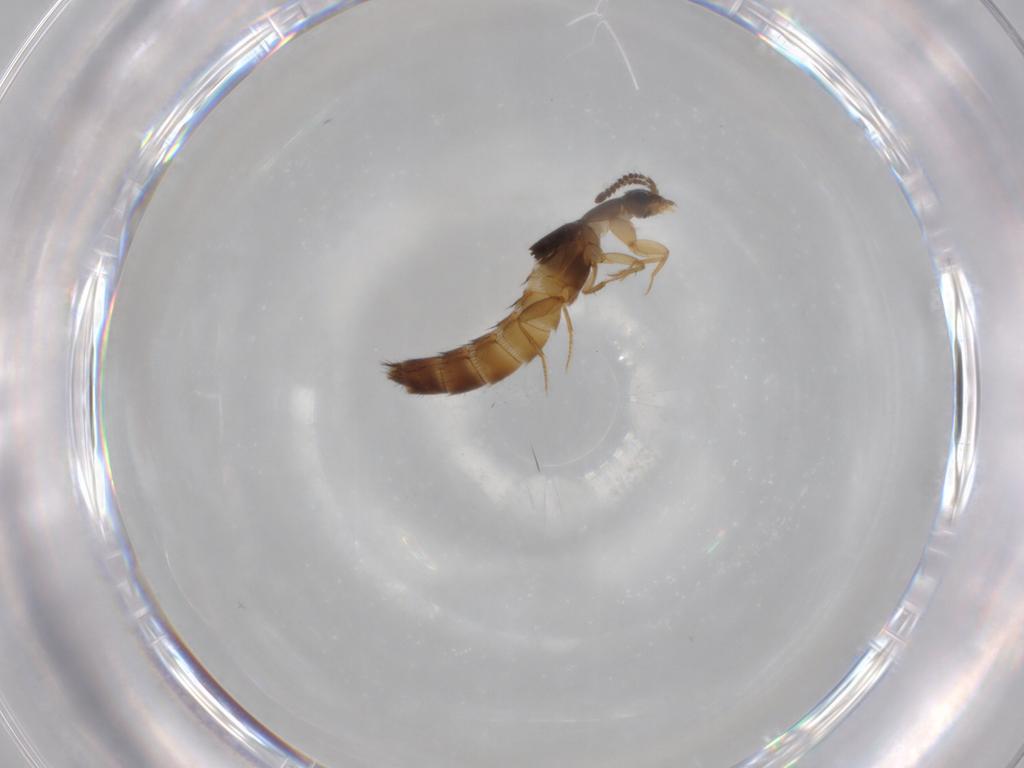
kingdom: Animalia
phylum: Arthropoda
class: Insecta
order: Coleoptera
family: Staphylinidae
